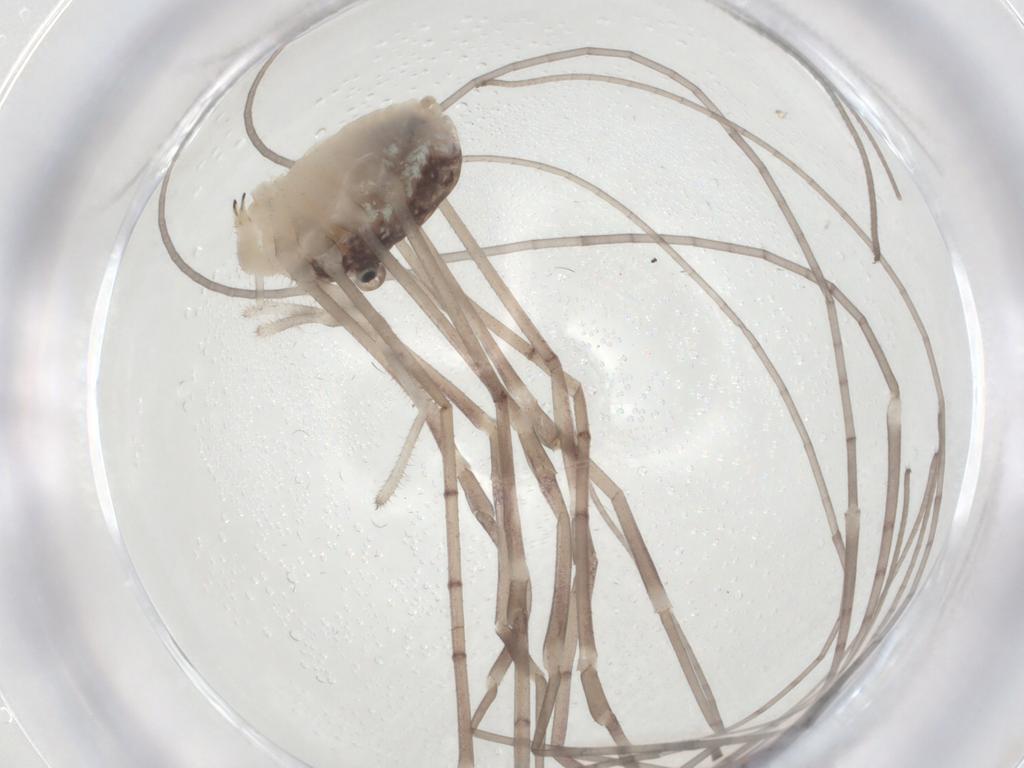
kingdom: Animalia
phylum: Arthropoda
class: Arachnida
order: Opiliones
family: Sclerosomatidae
